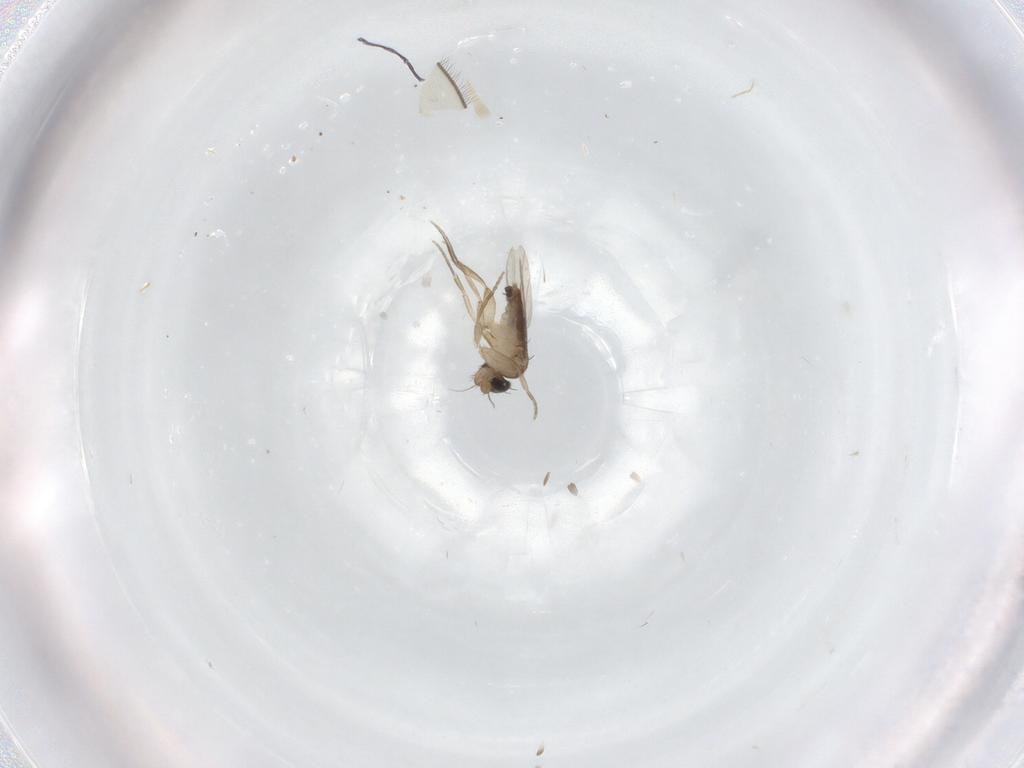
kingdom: Animalia
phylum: Arthropoda
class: Insecta
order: Diptera
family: Phoridae
